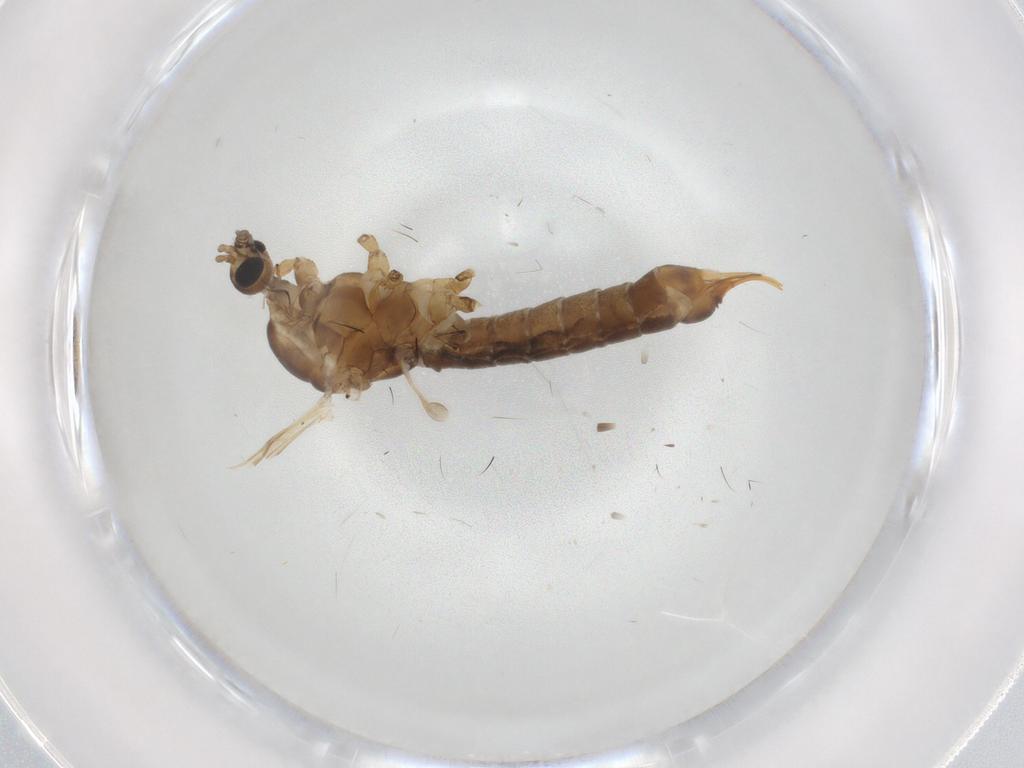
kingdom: Animalia
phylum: Arthropoda
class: Insecta
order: Diptera
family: Limoniidae
